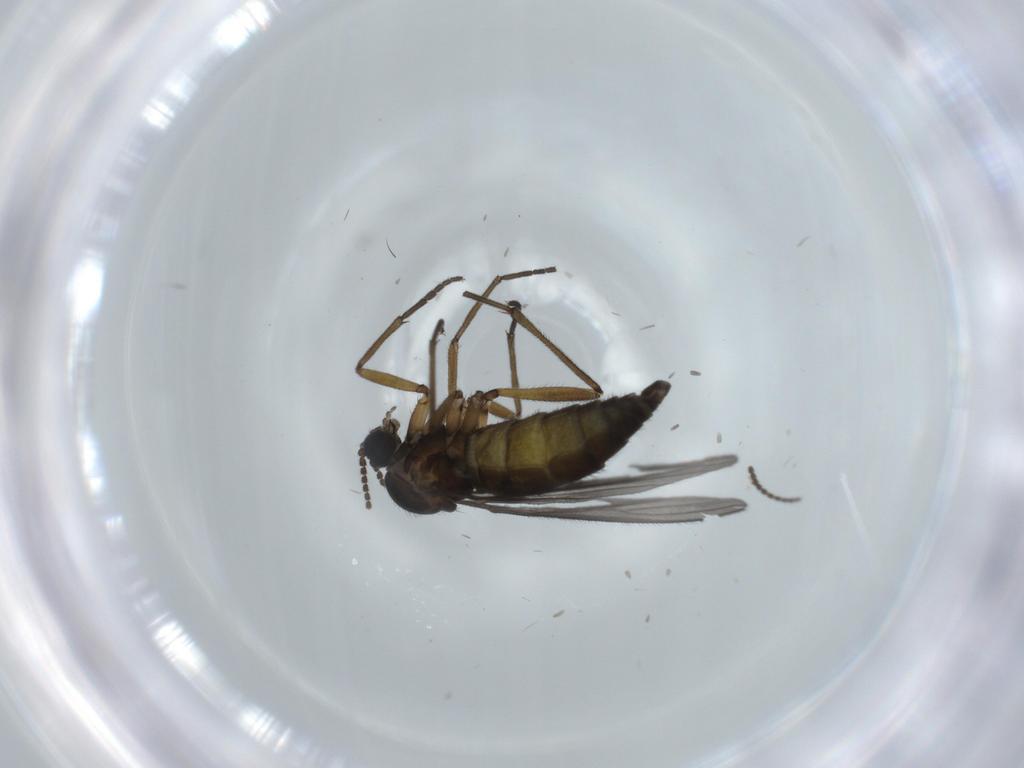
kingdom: Animalia
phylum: Arthropoda
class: Insecta
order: Diptera
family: Sciaridae
